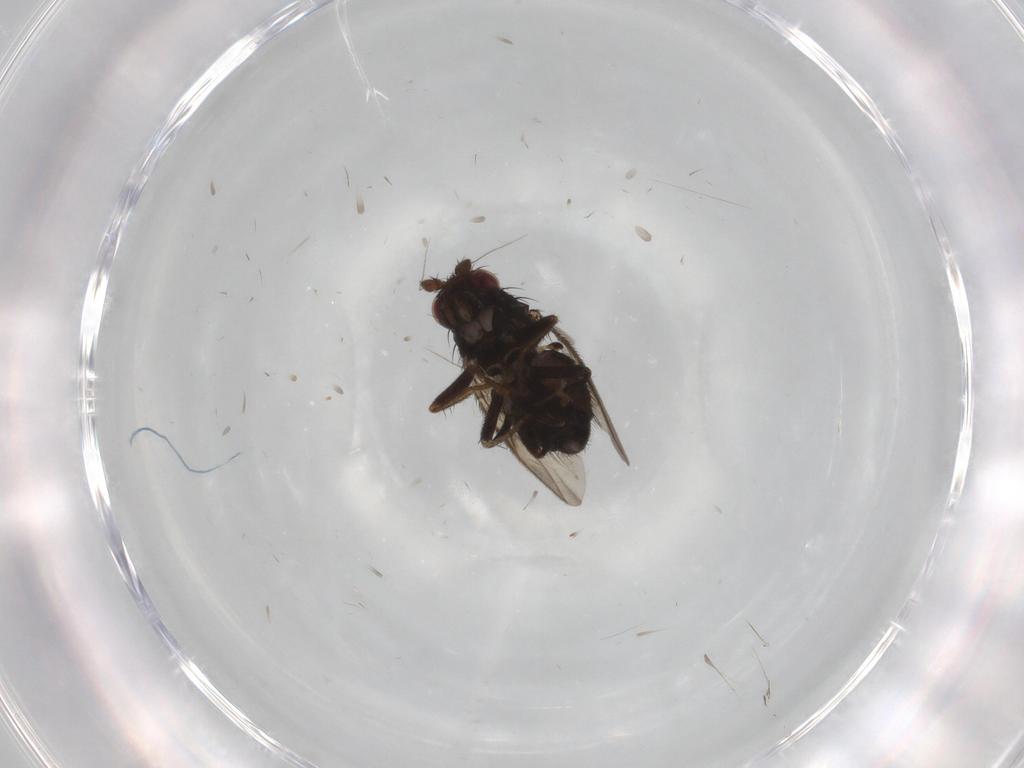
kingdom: Animalia
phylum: Arthropoda
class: Insecta
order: Diptera
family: Sphaeroceridae
